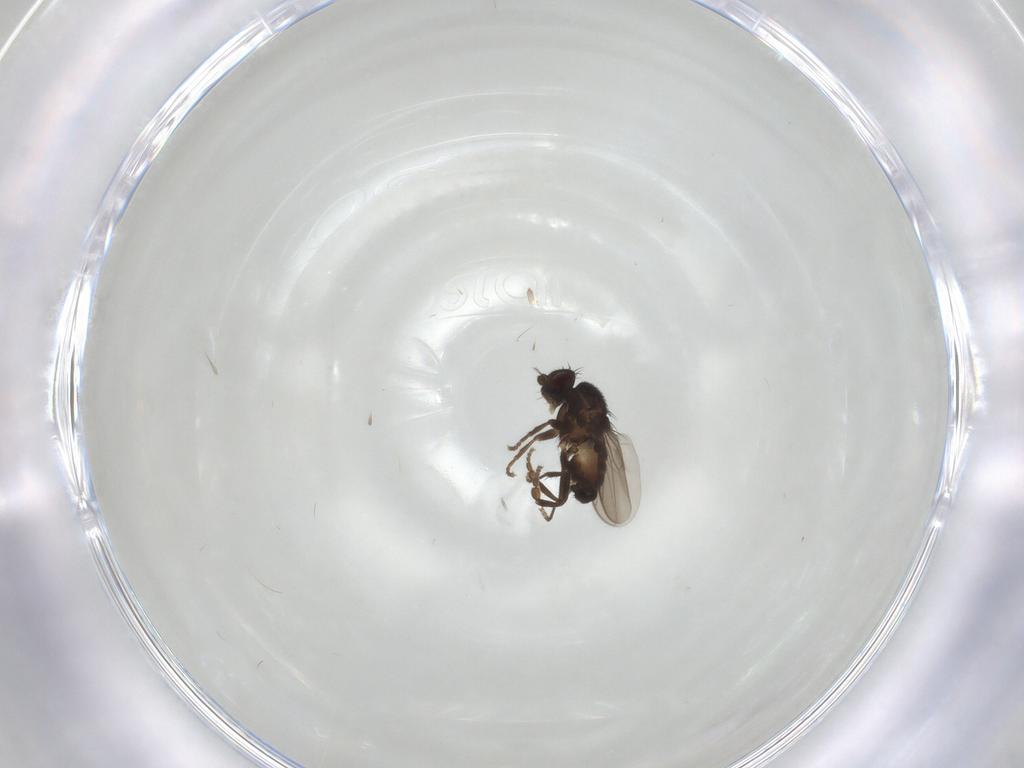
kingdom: Animalia
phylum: Arthropoda
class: Insecta
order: Diptera
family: Sphaeroceridae
